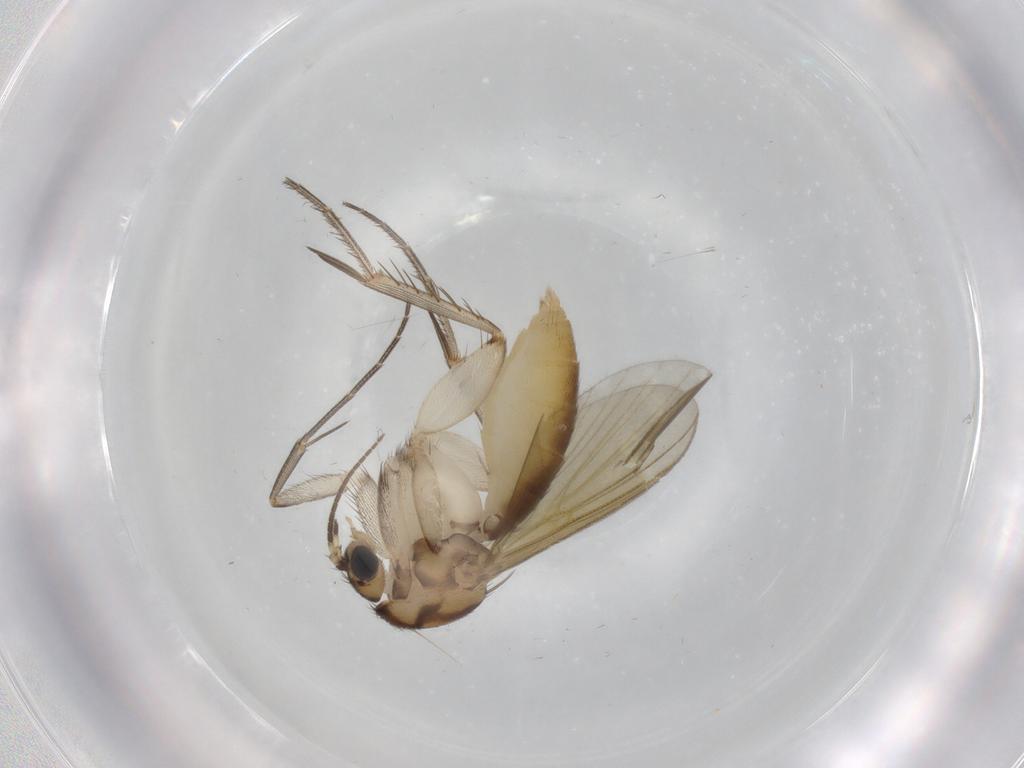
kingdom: Animalia
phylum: Arthropoda
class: Insecta
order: Diptera
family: Mycetophilidae
